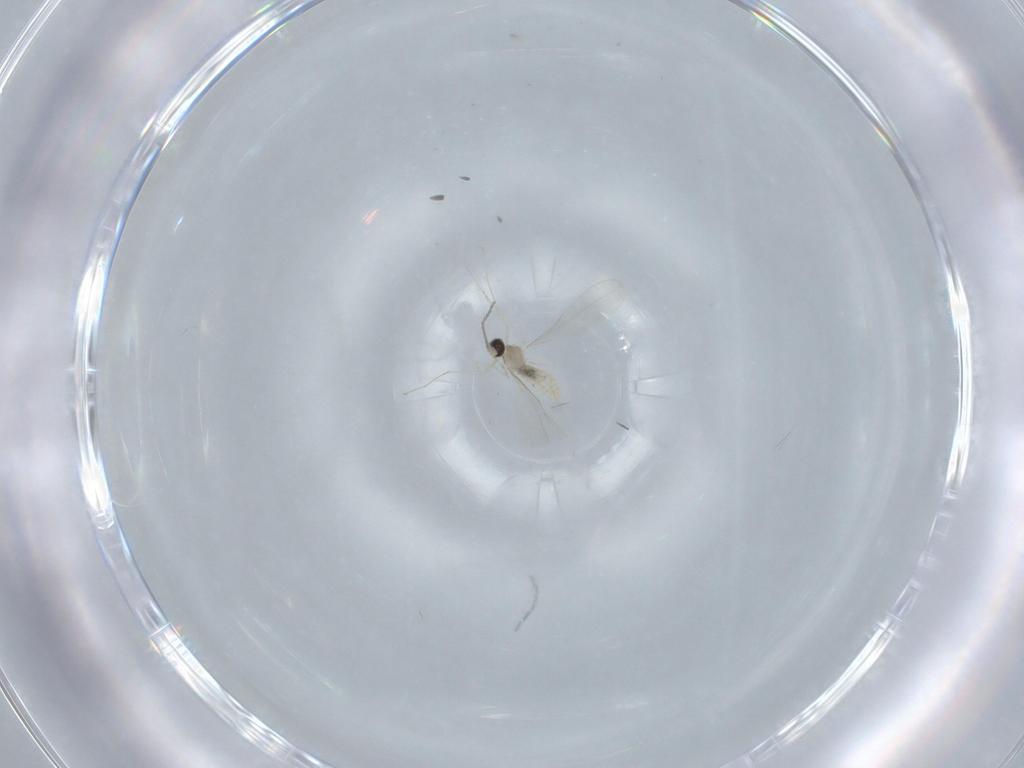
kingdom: Animalia
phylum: Arthropoda
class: Insecta
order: Diptera
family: Cecidomyiidae
